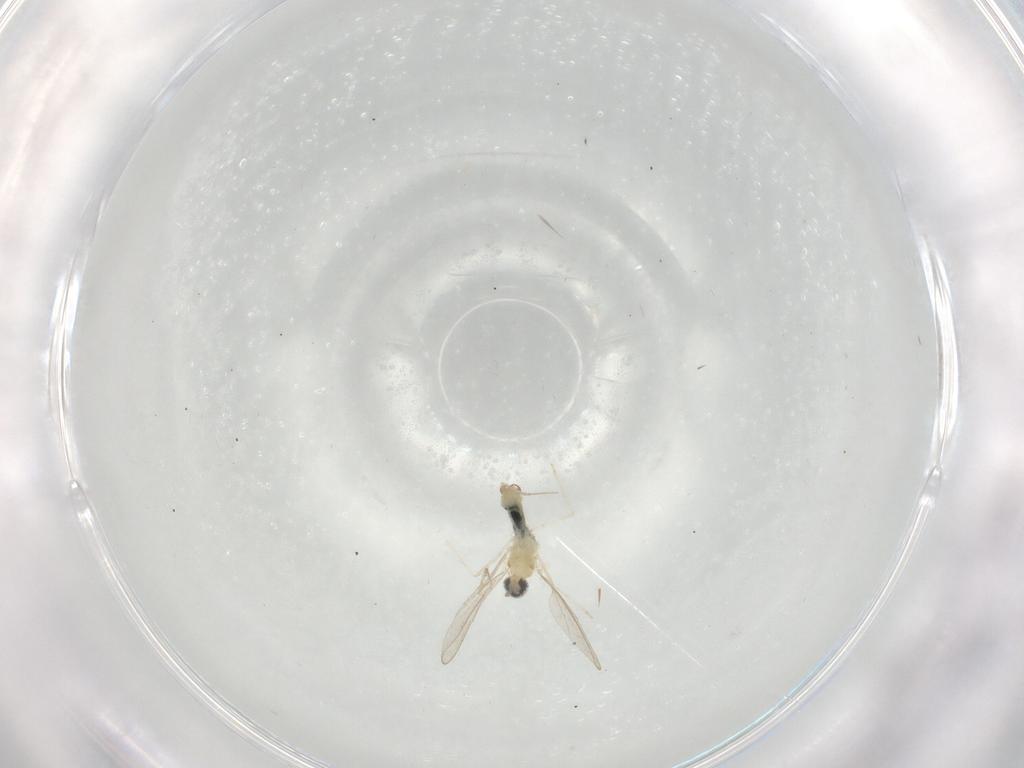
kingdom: Animalia
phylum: Arthropoda
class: Insecta
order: Diptera
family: Cecidomyiidae
